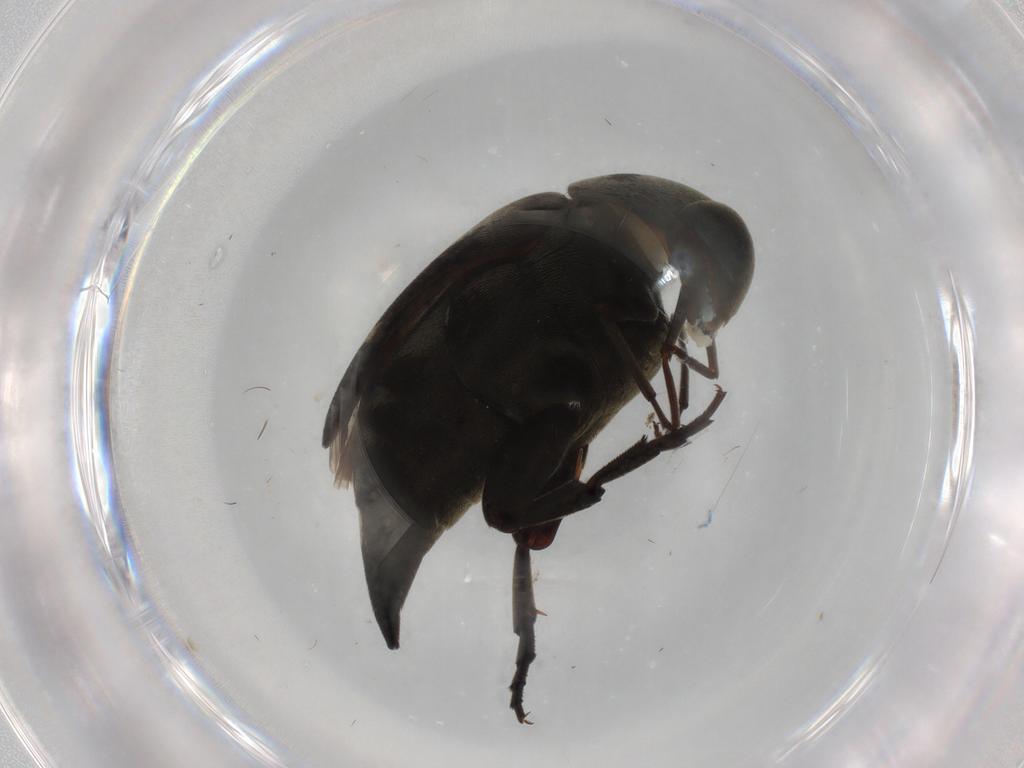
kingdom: Animalia
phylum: Arthropoda
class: Insecta
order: Coleoptera
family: Mordellidae
